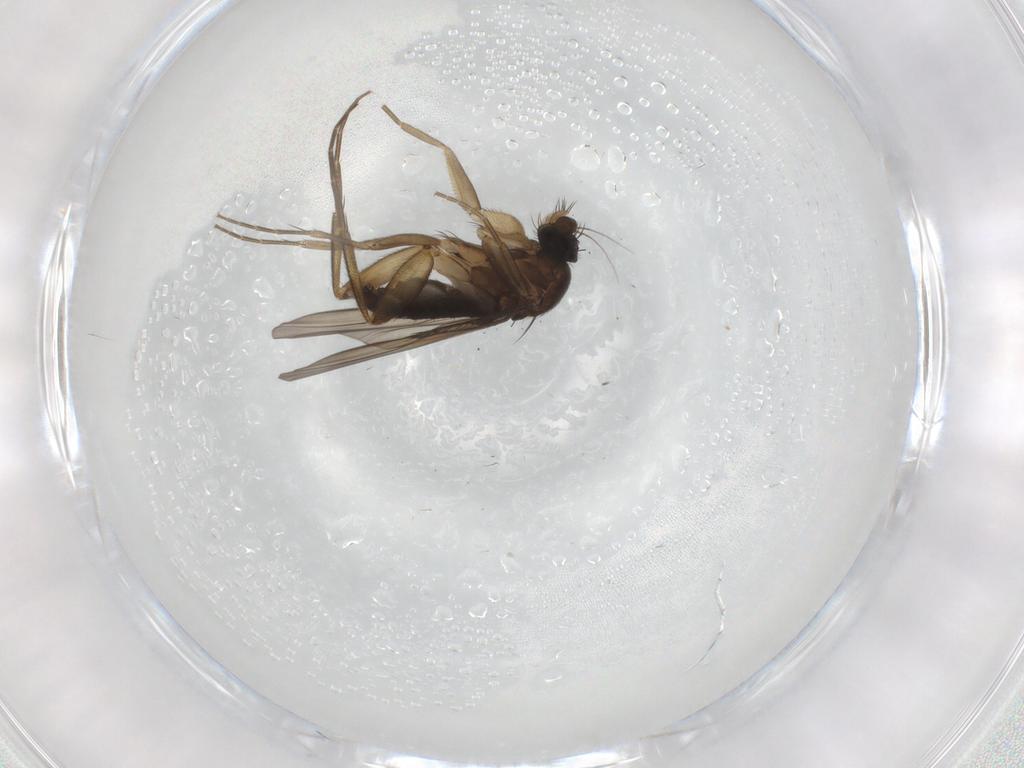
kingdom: Animalia
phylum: Arthropoda
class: Insecta
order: Diptera
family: Phoridae
